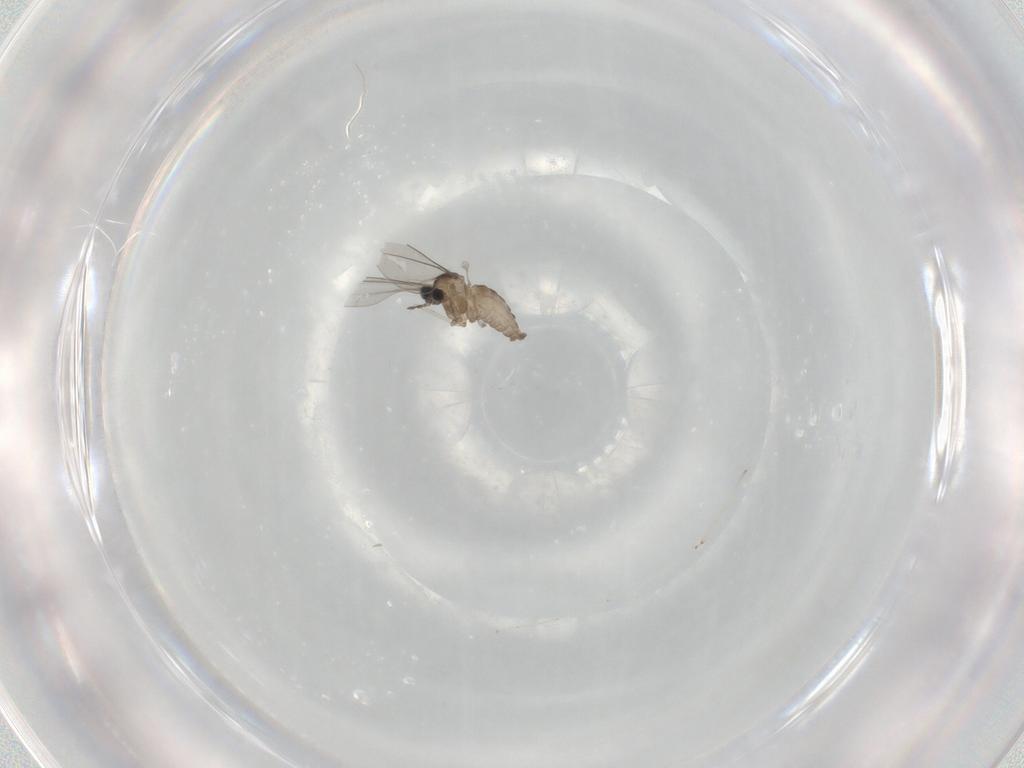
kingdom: Animalia
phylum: Arthropoda
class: Insecta
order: Diptera
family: Cecidomyiidae
